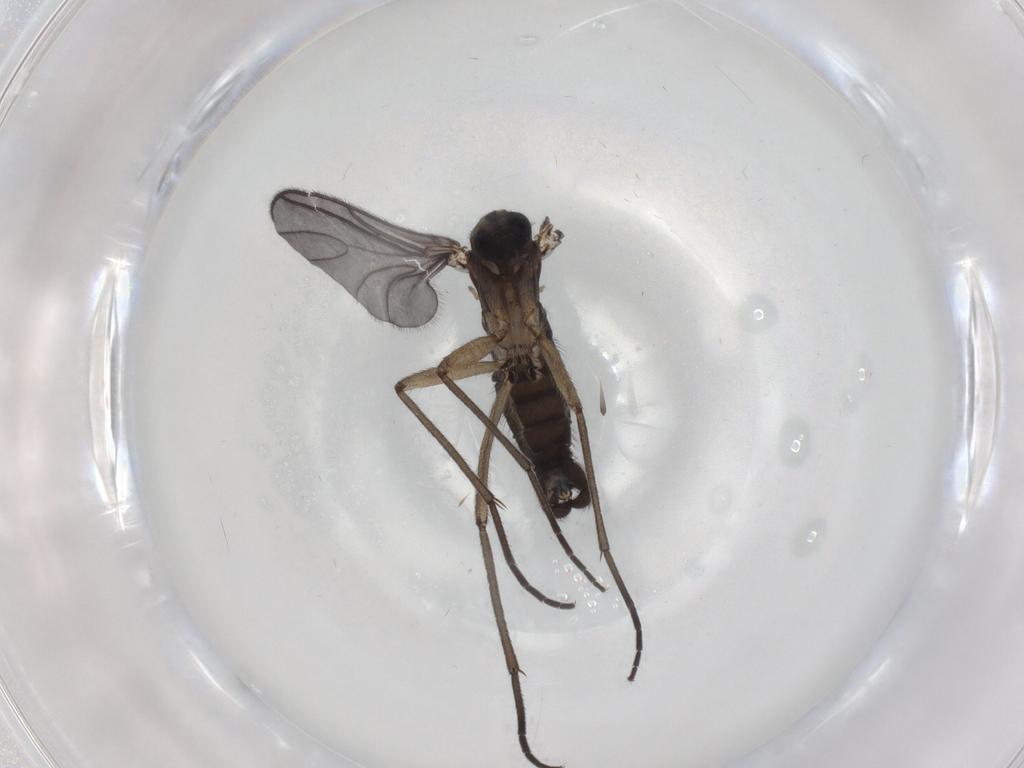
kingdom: Animalia
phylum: Arthropoda
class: Insecta
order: Diptera
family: Sciaridae
